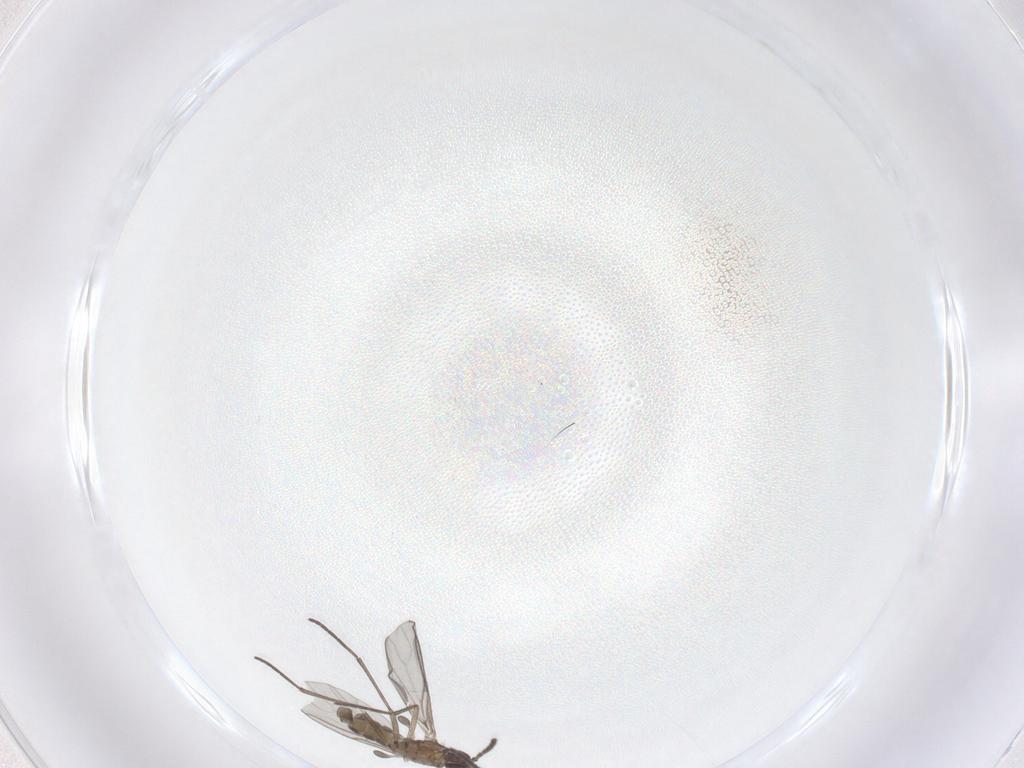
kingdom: Animalia
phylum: Arthropoda
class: Insecta
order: Diptera
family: Sciaridae
